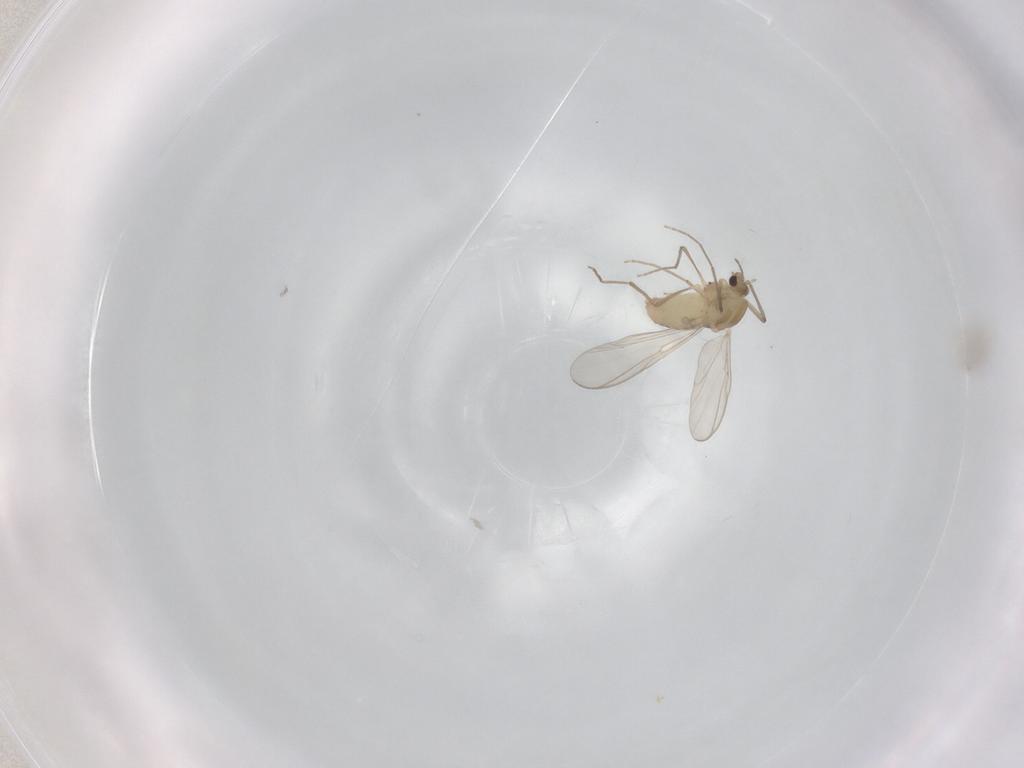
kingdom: Animalia
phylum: Arthropoda
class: Insecta
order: Diptera
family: Chironomidae
